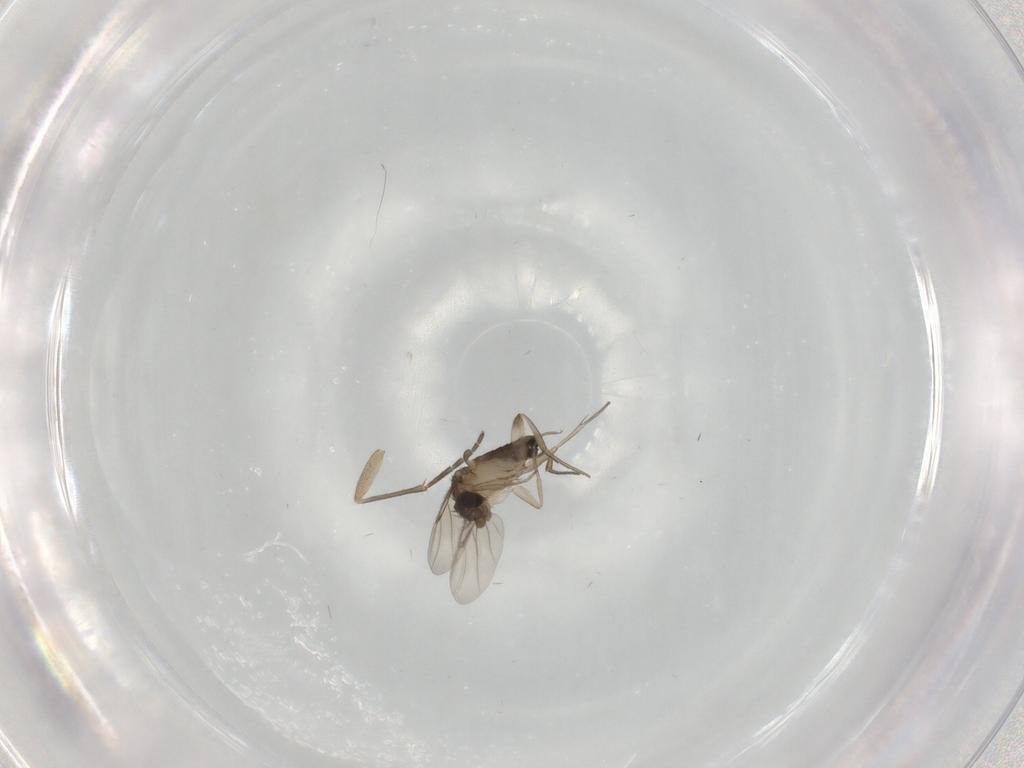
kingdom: Animalia
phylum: Arthropoda
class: Insecta
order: Diptera
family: Phoridae
